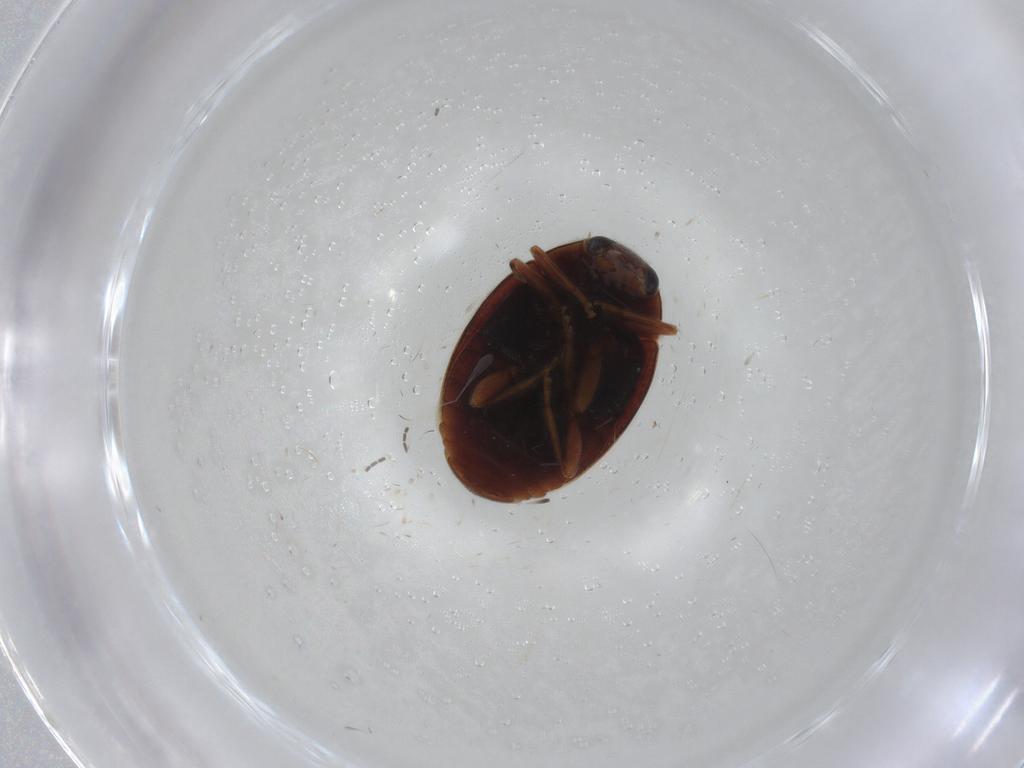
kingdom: Animalia
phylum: Arthropoda
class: Insecta
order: Coleoptera
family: Coccinellidae
